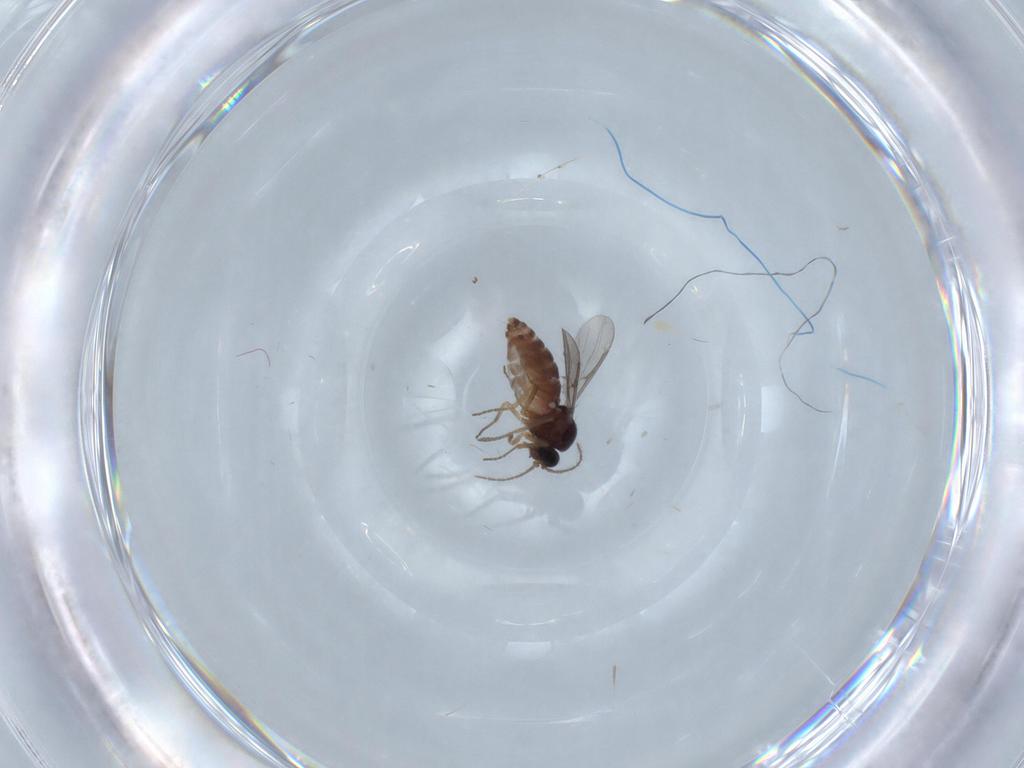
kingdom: Animalia
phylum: Arthropoda
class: Insecta
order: Diptera
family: Ceratopogonidae
